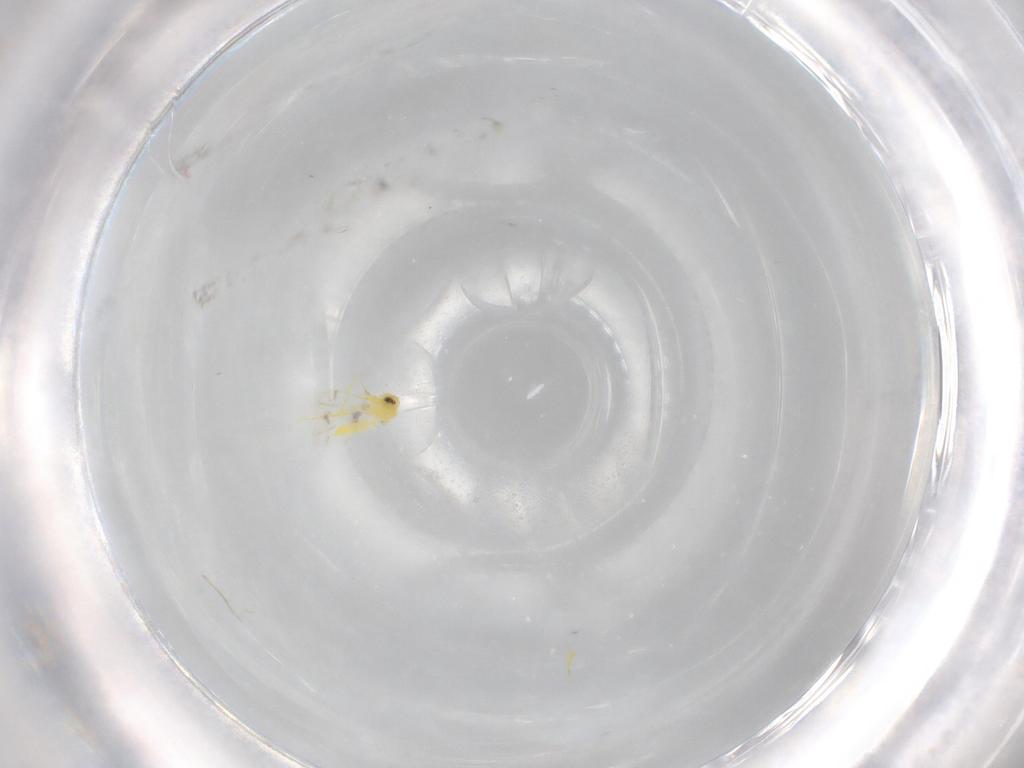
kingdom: Animalia
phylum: Arthropoda
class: Insecta
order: Hemiptera
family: Aleyrodidae
